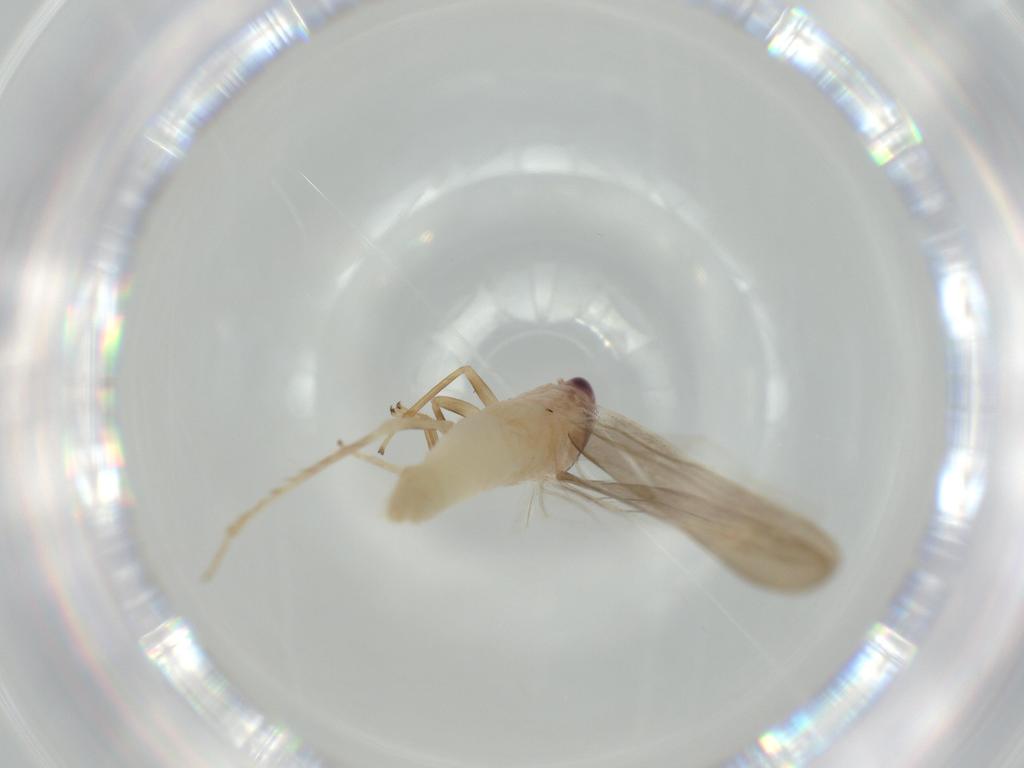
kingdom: Animalia
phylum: Arthropoda
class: Insecta
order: Hemiptera
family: Cicadellidae
